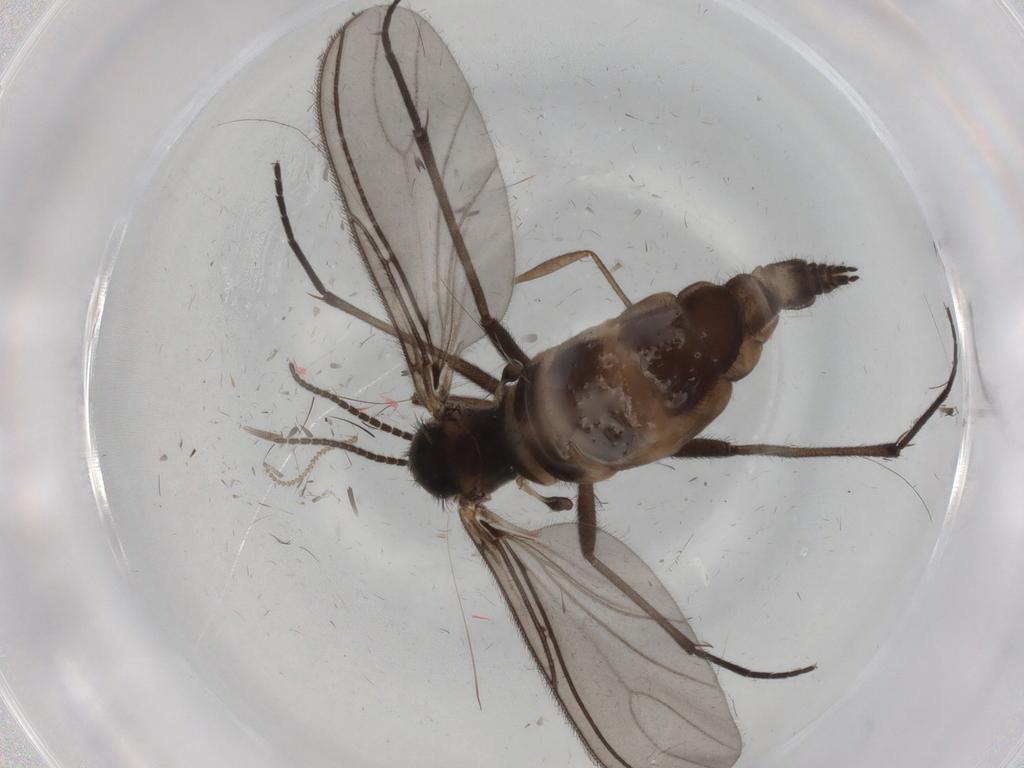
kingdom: Animalia
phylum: Arthropoda
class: Insecta
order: Diptera
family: Sciaridae
